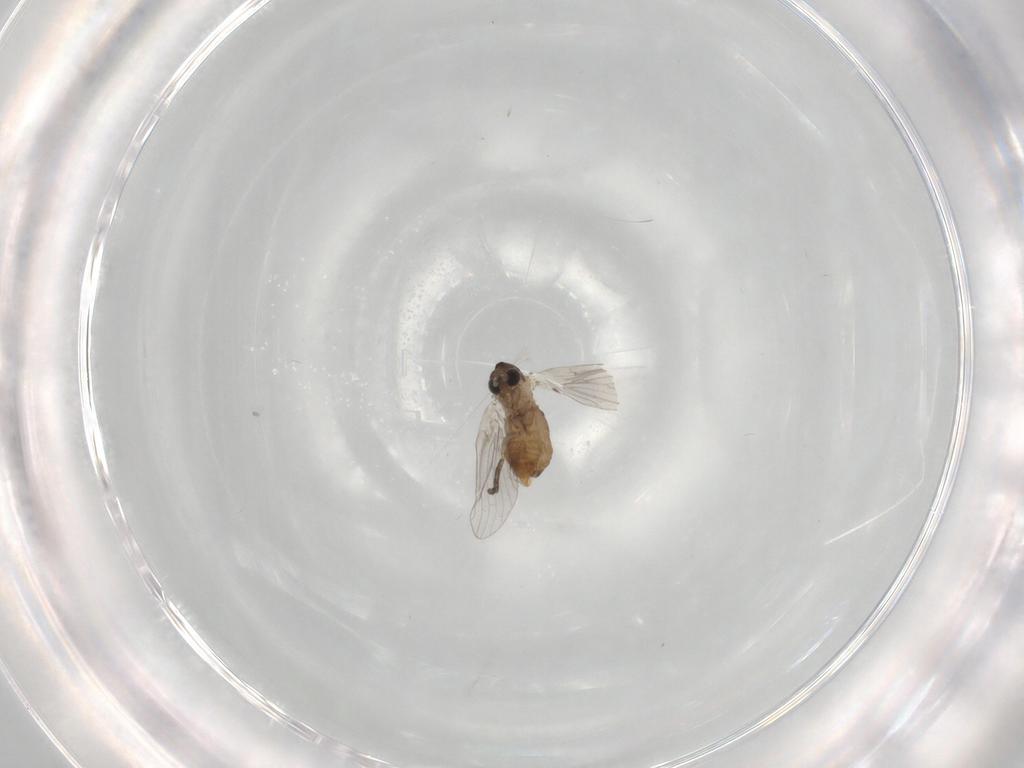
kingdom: Animalia
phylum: Arthropoda
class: Insecta
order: Diptera
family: Psychodidae
